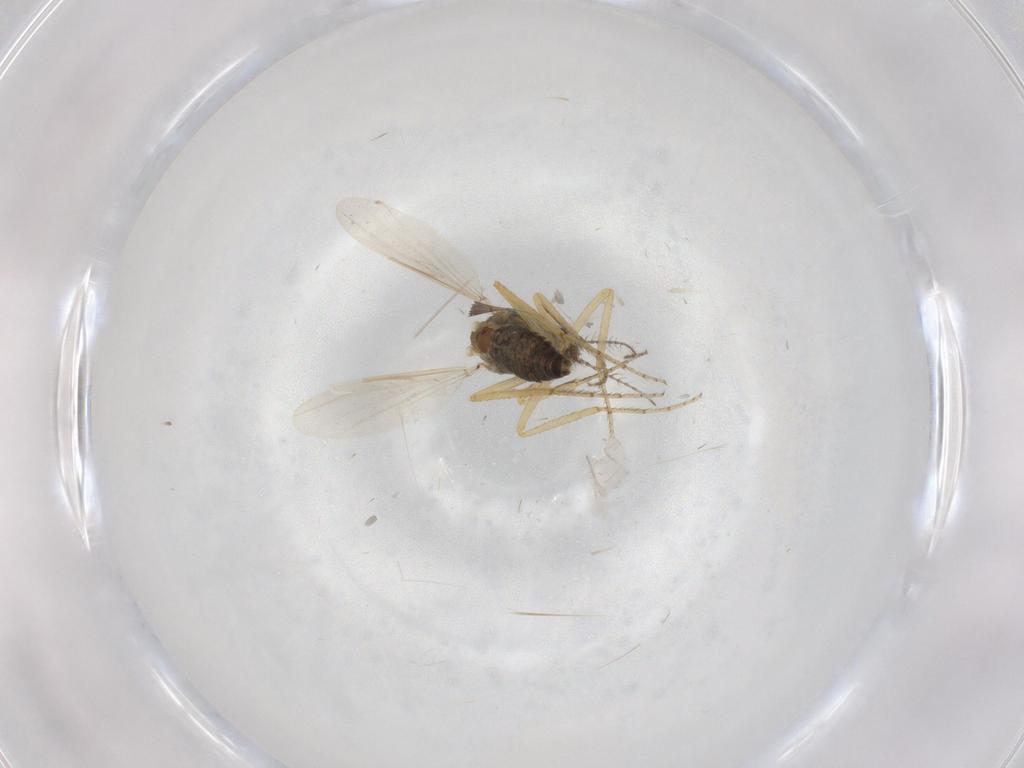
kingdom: Animalia
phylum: Arthropoda
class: Insecta
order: Diptera
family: Ceratopogonidae
